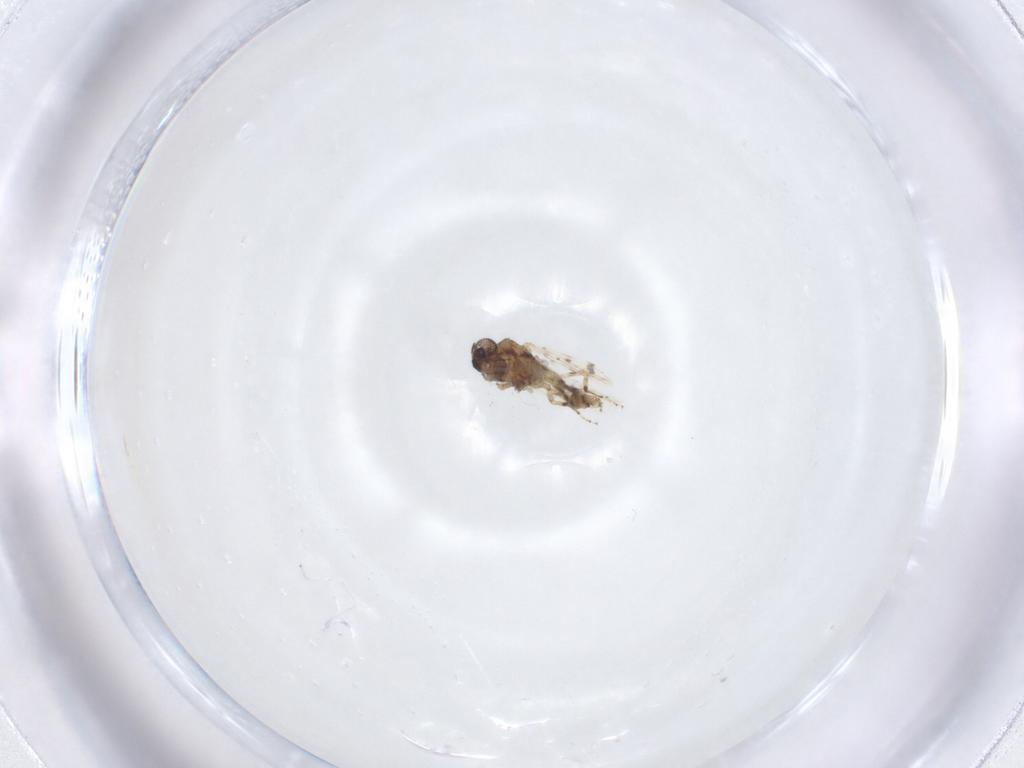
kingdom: Animalia
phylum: Arthropoda
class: Insecta
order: Diptera
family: Ceratopogonidae
